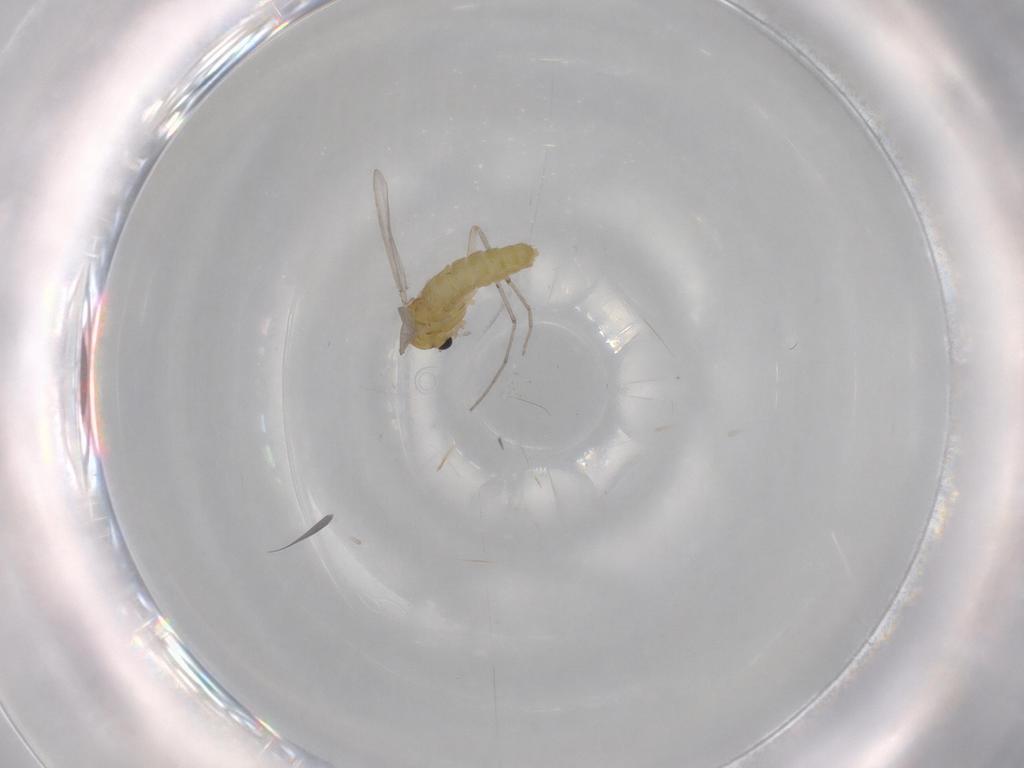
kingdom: Animalia
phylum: Arthropoda
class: Insecta
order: Diptera
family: Chironomidae
